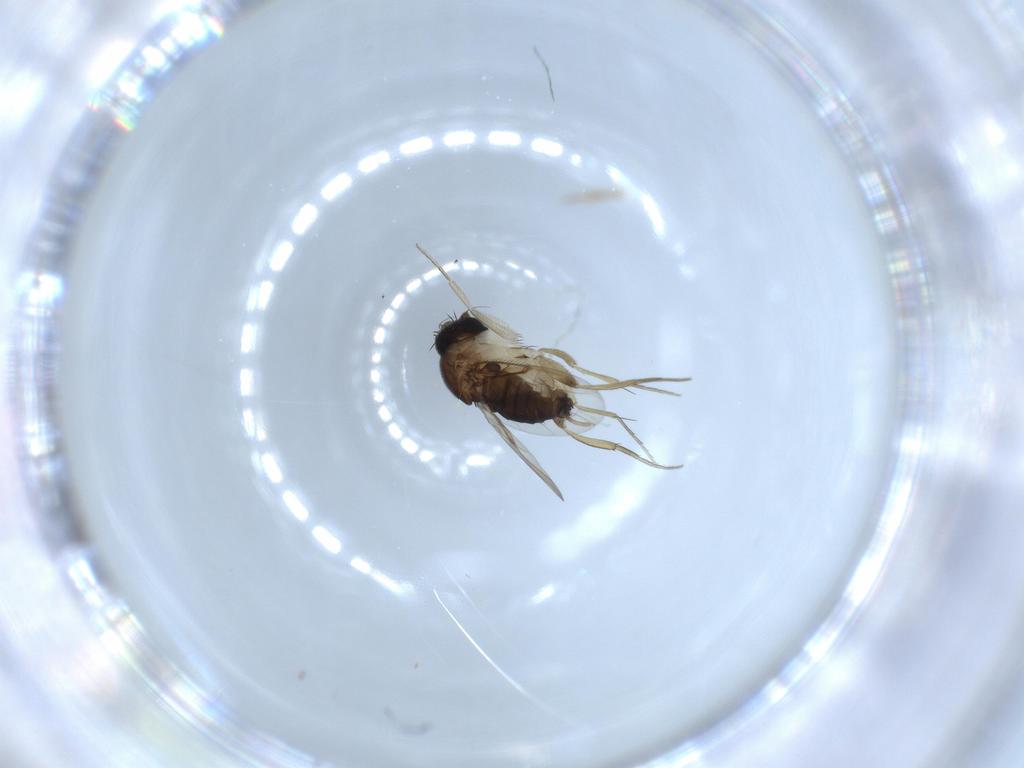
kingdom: Animalia
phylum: Arthropoda
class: Insecta
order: Diptera
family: Phoridae
